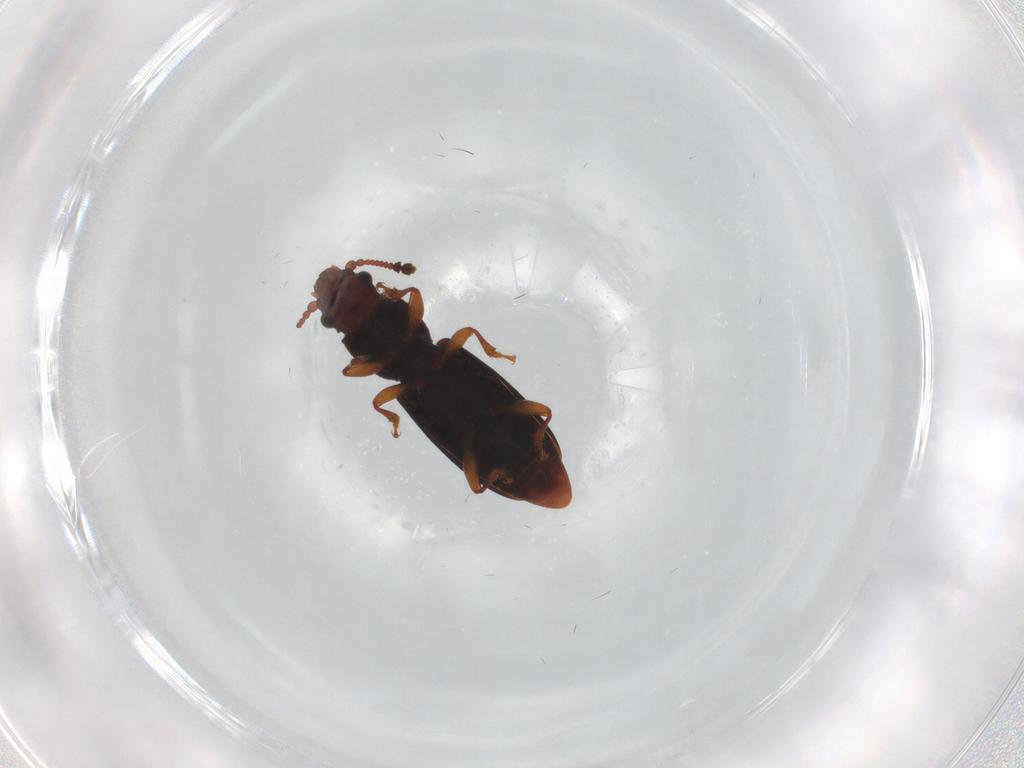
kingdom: Animalia
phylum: Arthropoda
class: Insecta
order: Coleoptera
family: Monotomidae
